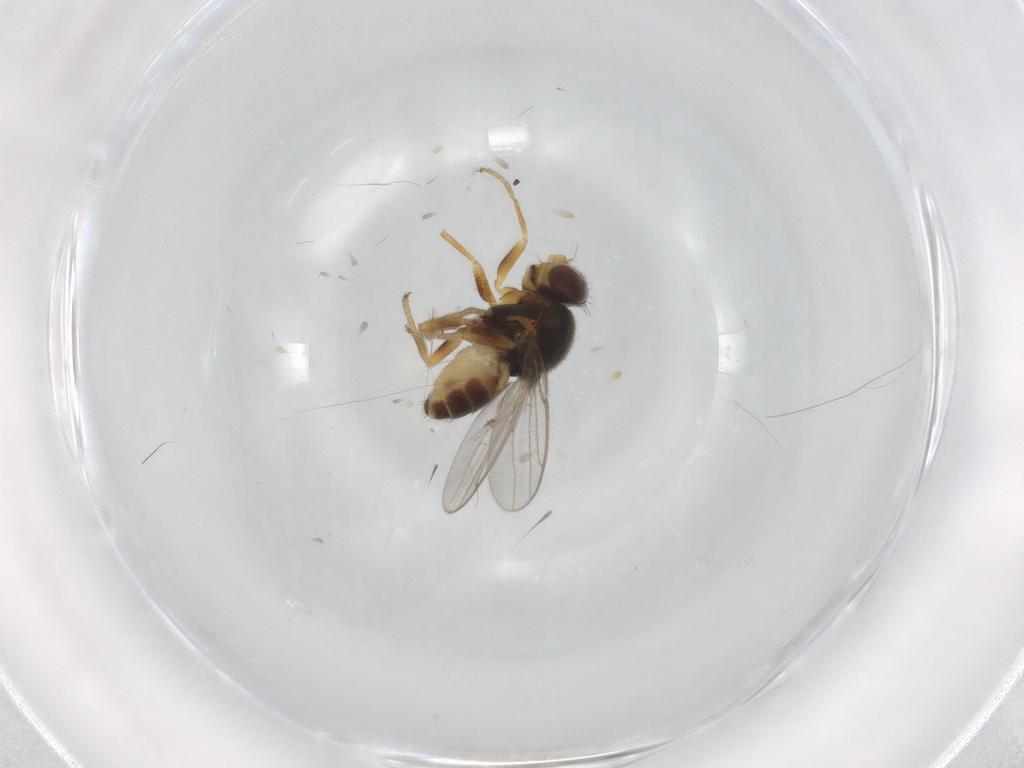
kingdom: Animalia
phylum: Arthropoda
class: Insecta
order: Diptera
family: Chloropidae
